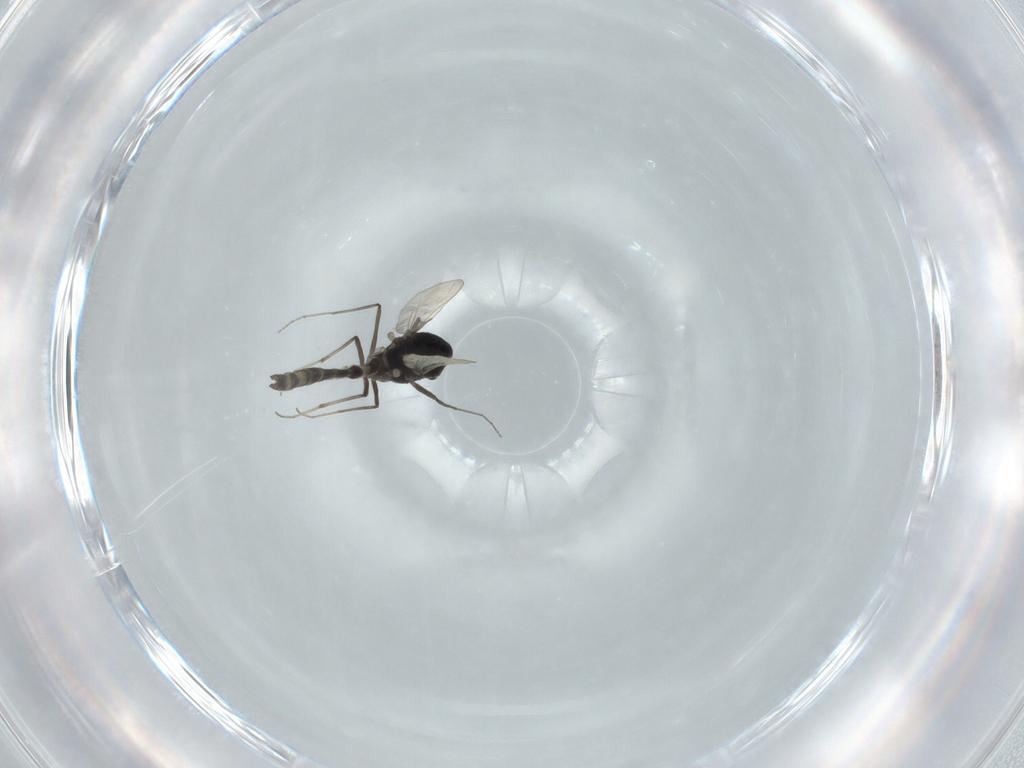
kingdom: Animalia
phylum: Arthropoda
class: Insecta
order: Diptera
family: Chironomidae
